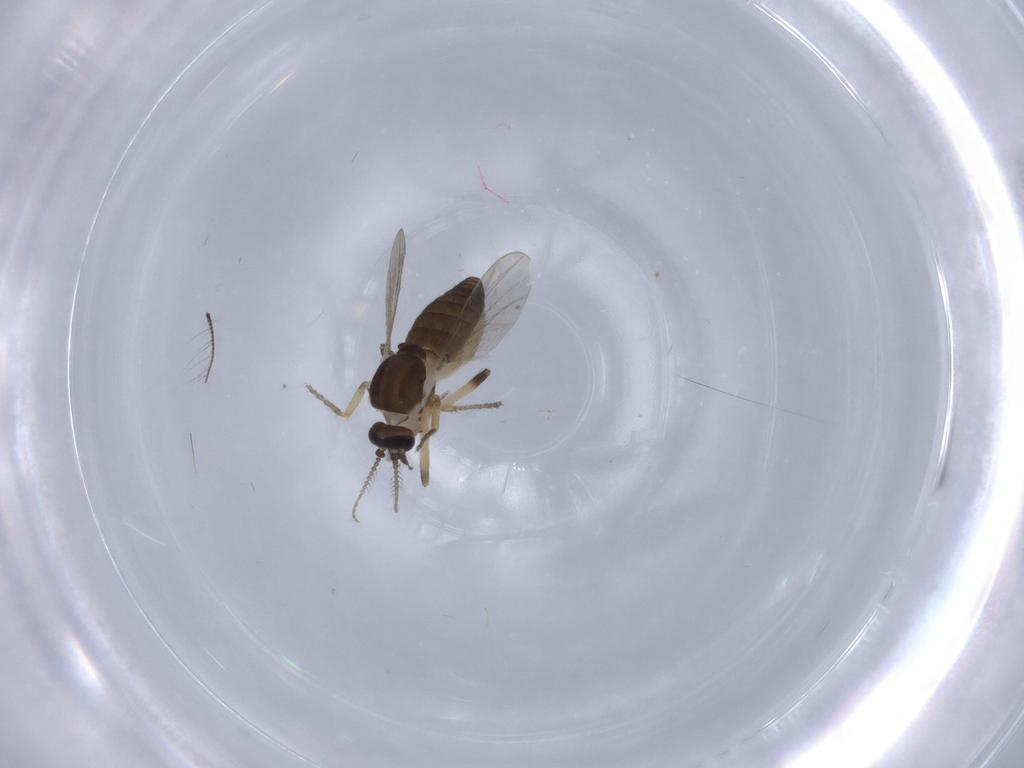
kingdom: Animalia
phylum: Arthropoda
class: Insecta
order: Diptera
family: Ceratopogonidae
